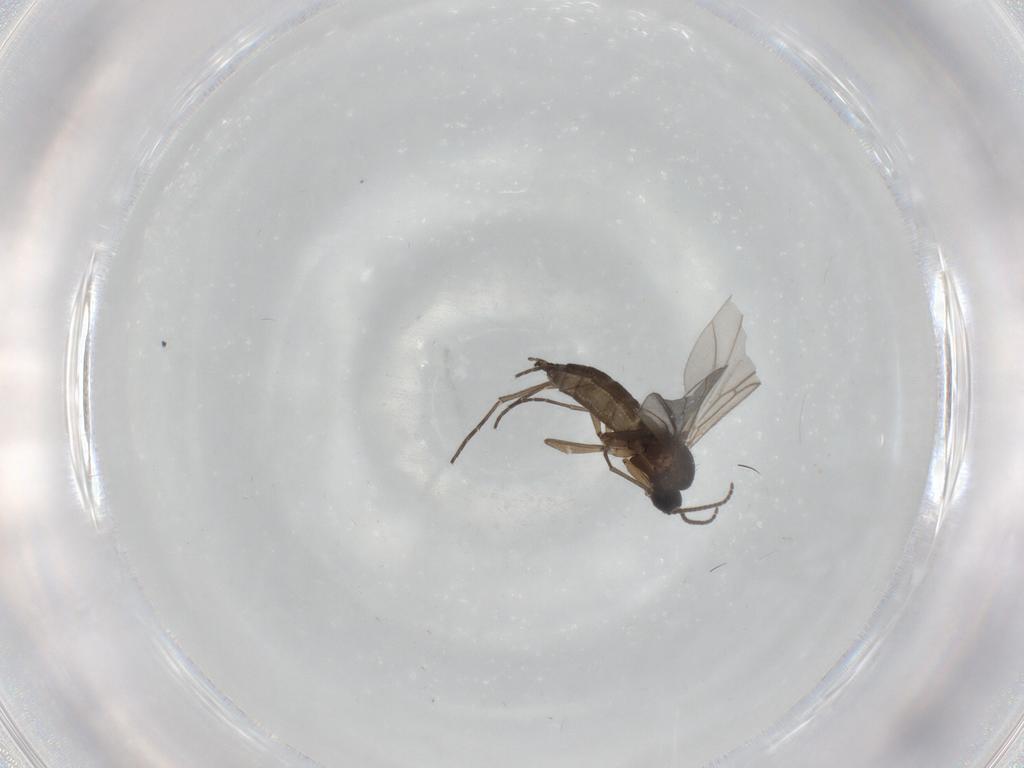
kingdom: Animalia
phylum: Arthropoda
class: Insecta
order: Diptera
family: Sciaridae
